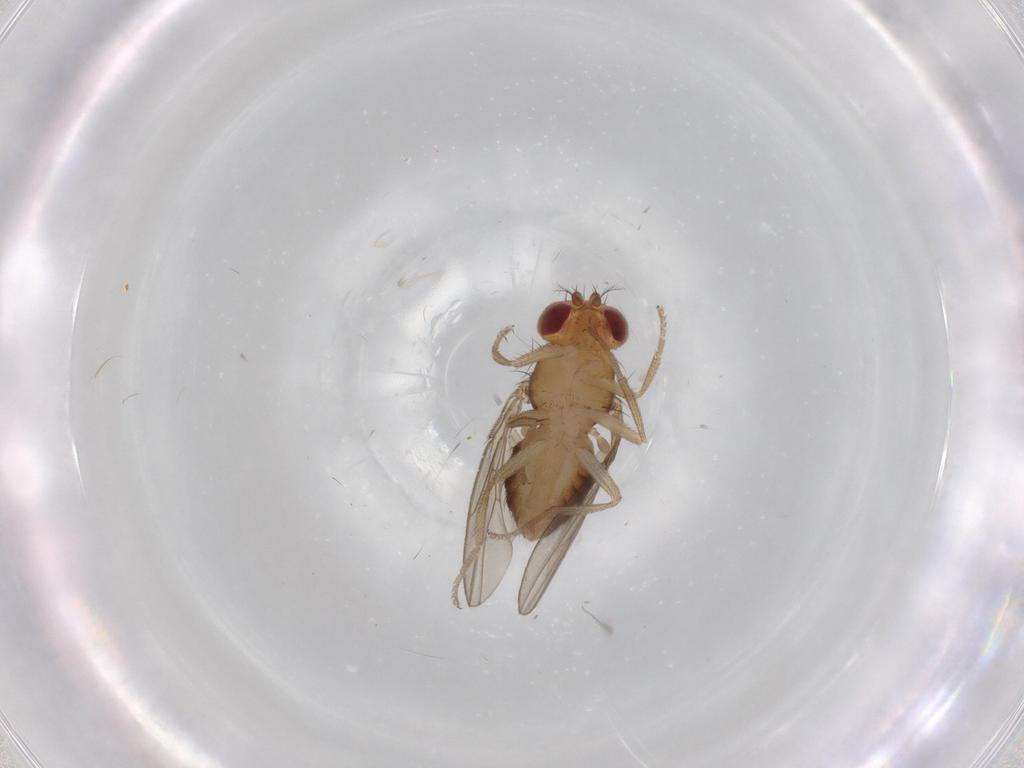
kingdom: Animalia
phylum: Arthropoda
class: Insecta
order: Diptera
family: Drosophilidae
